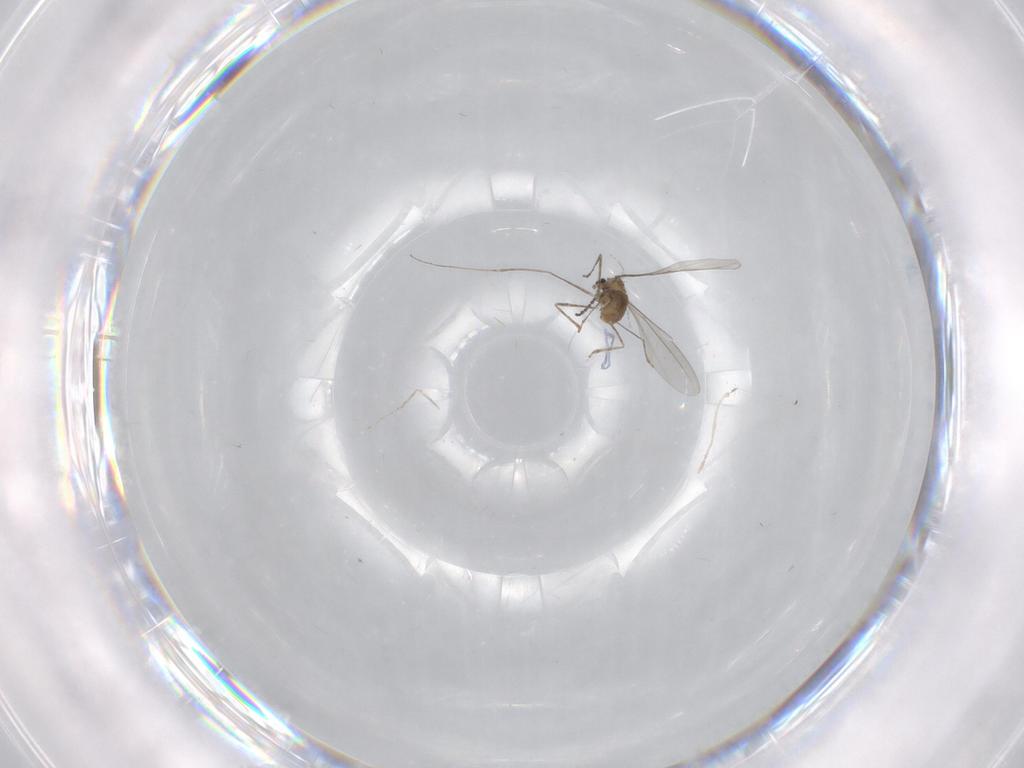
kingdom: Animalia
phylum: Arthropoda
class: Insecta
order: Diptera
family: Cecidomyiidae
